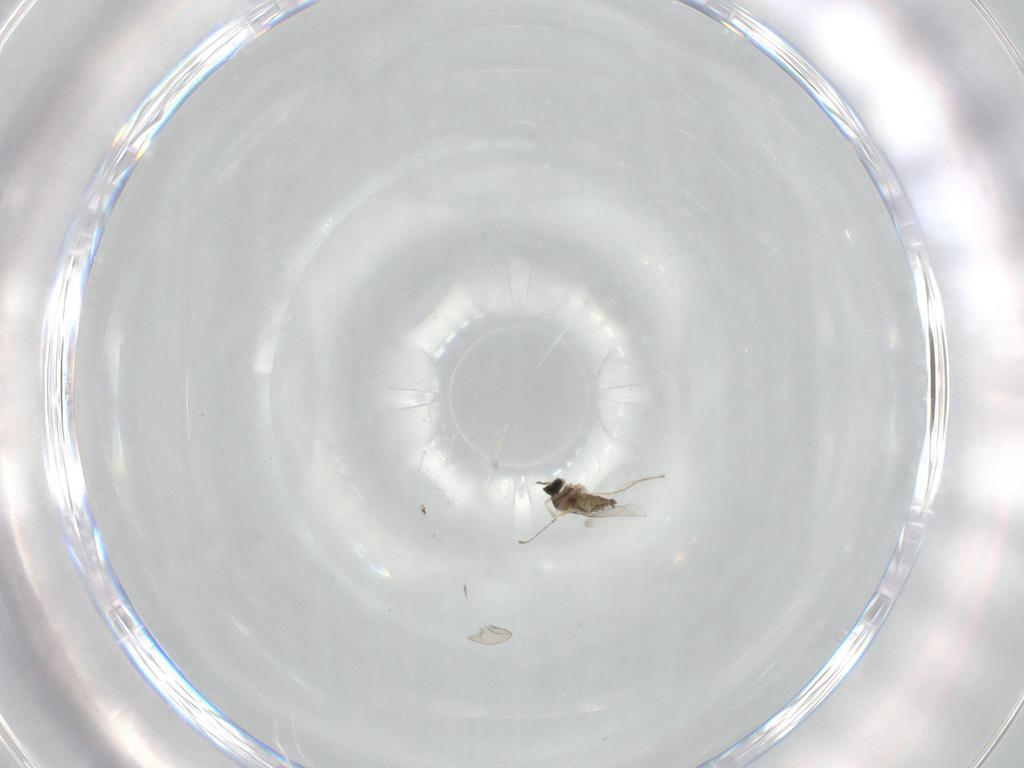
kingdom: Animalia
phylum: Arthropoda
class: Insecta
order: Diptera
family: Cecidomyiidae
